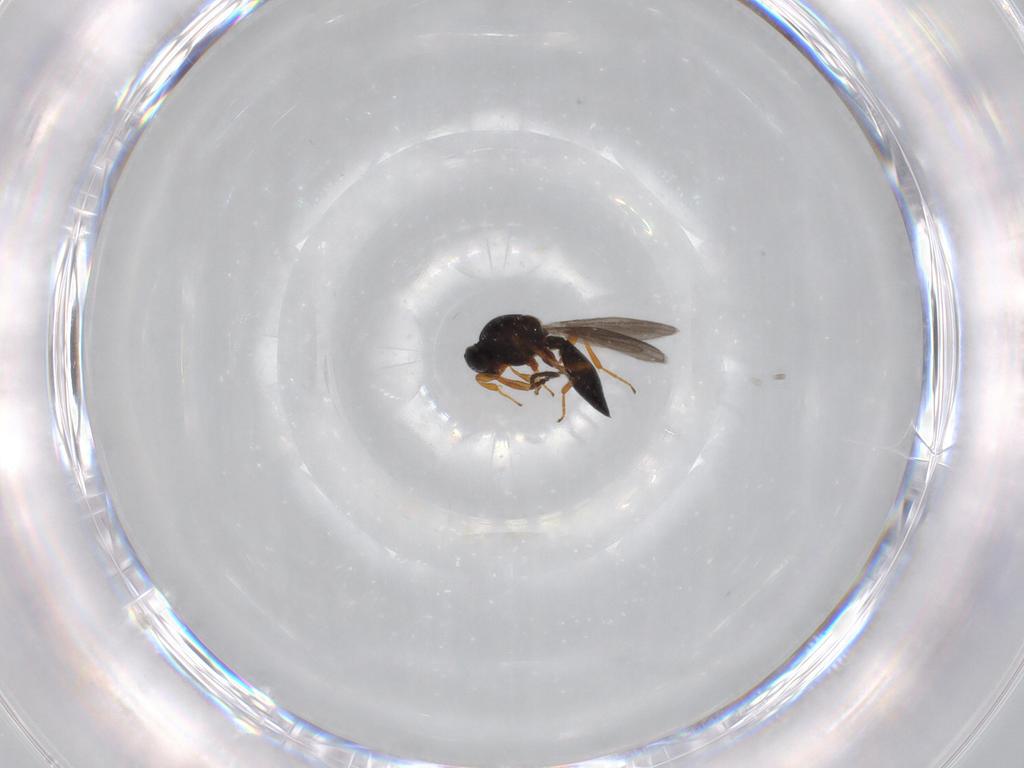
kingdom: Animalia
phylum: Arthropoda
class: Insecta
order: Hymenoptera
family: Platygastridae
